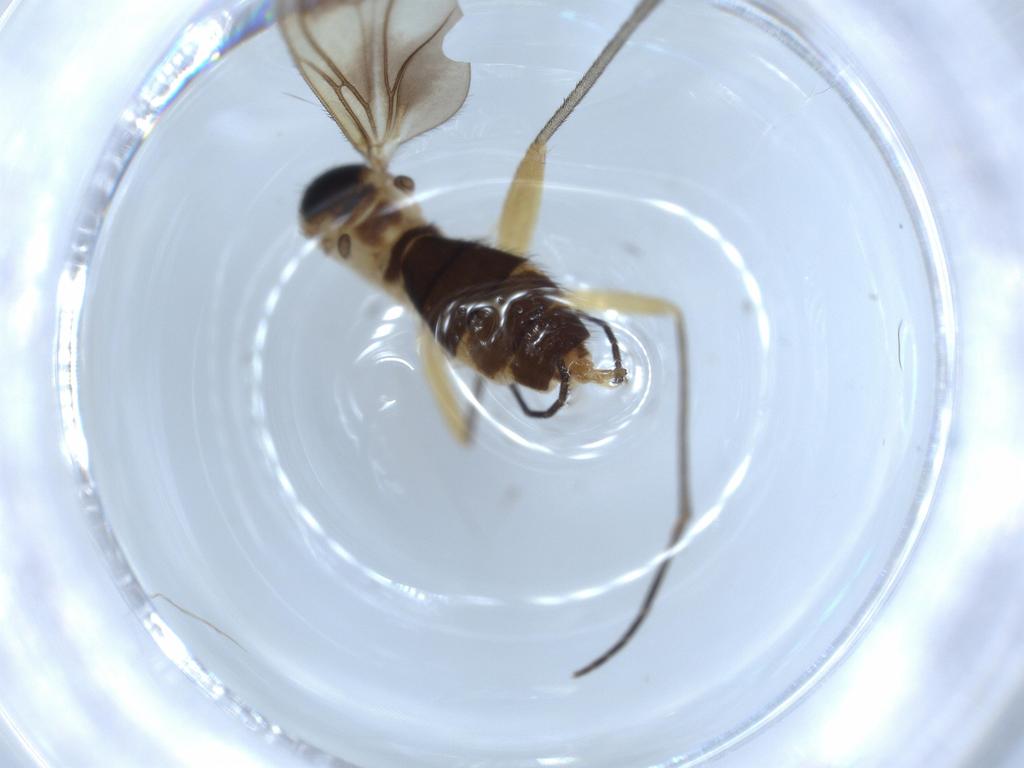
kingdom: Animalia
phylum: Arthropoda
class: Insecta
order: Diptera
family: Sciaridae
